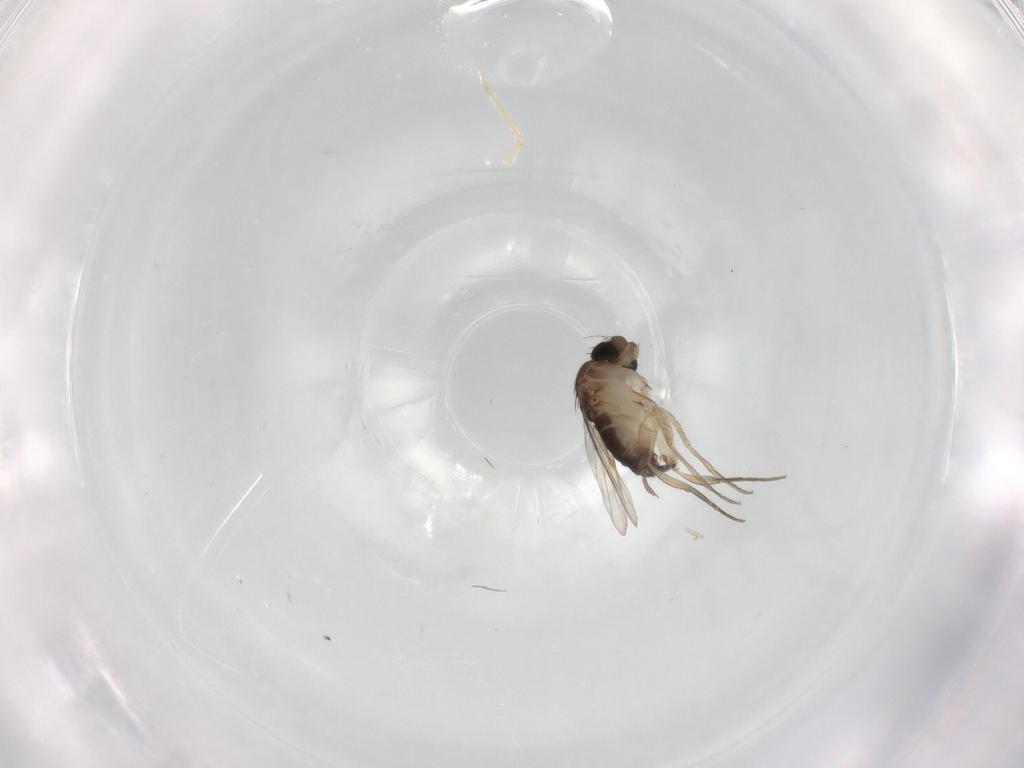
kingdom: Animalia
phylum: Arthropoda
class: Insecta
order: Diptera
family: Phoridae
